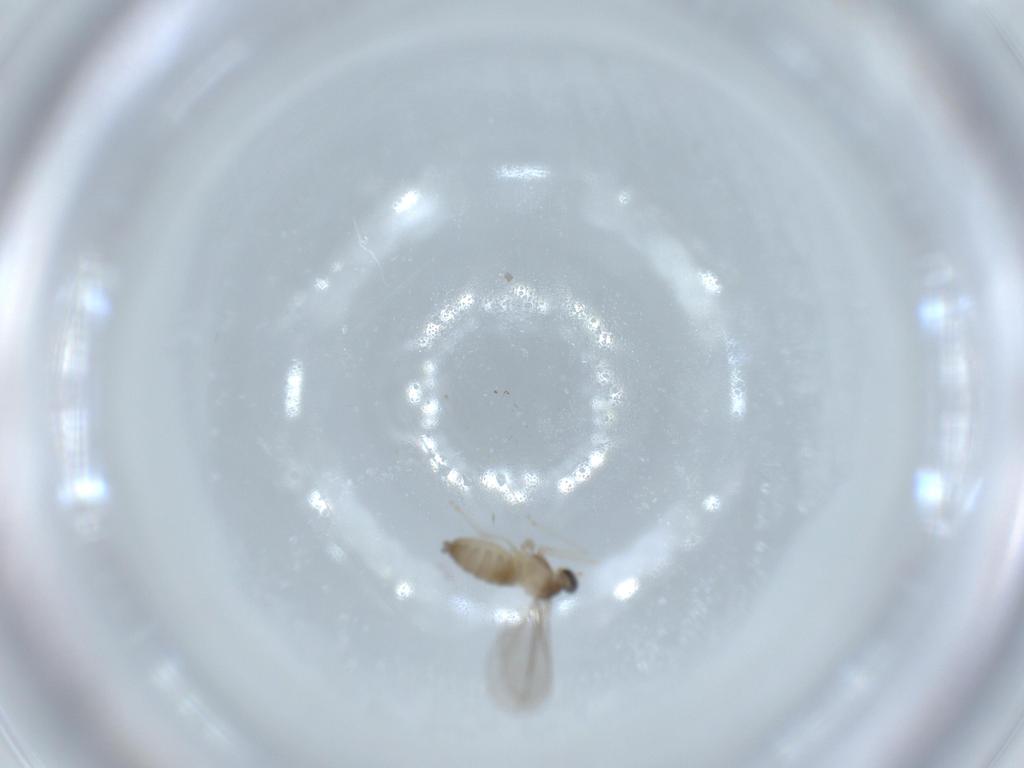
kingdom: Animalia
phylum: Arthropoda
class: Insecta
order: Diptera
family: Cecidomyiidae
